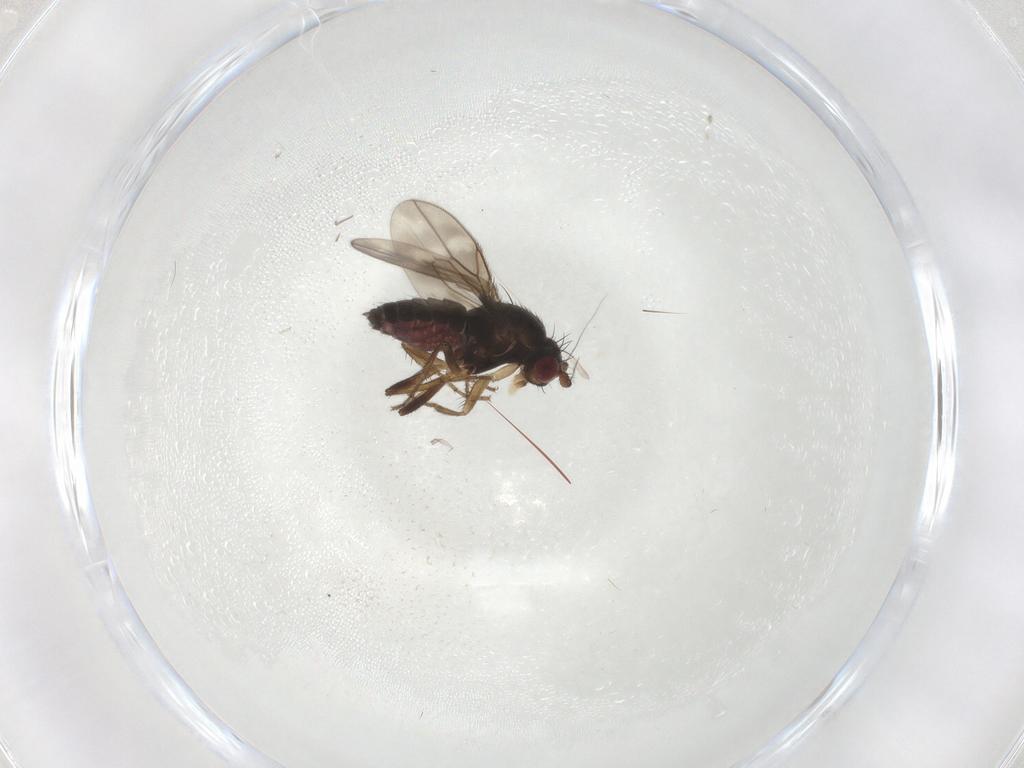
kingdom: Animalia
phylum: Arthropoda
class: Insecta
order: Diptera
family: Sphaeroceridae
